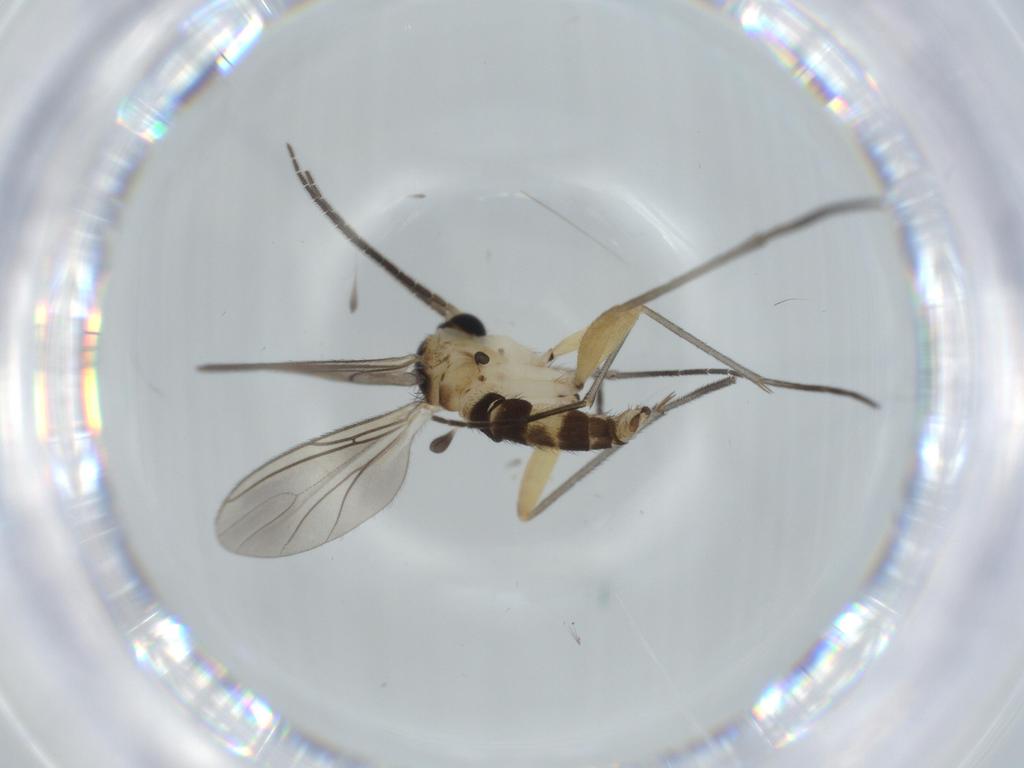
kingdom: Animalia
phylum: Arthropoda
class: Insecta
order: Diptera
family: Sciaridae
